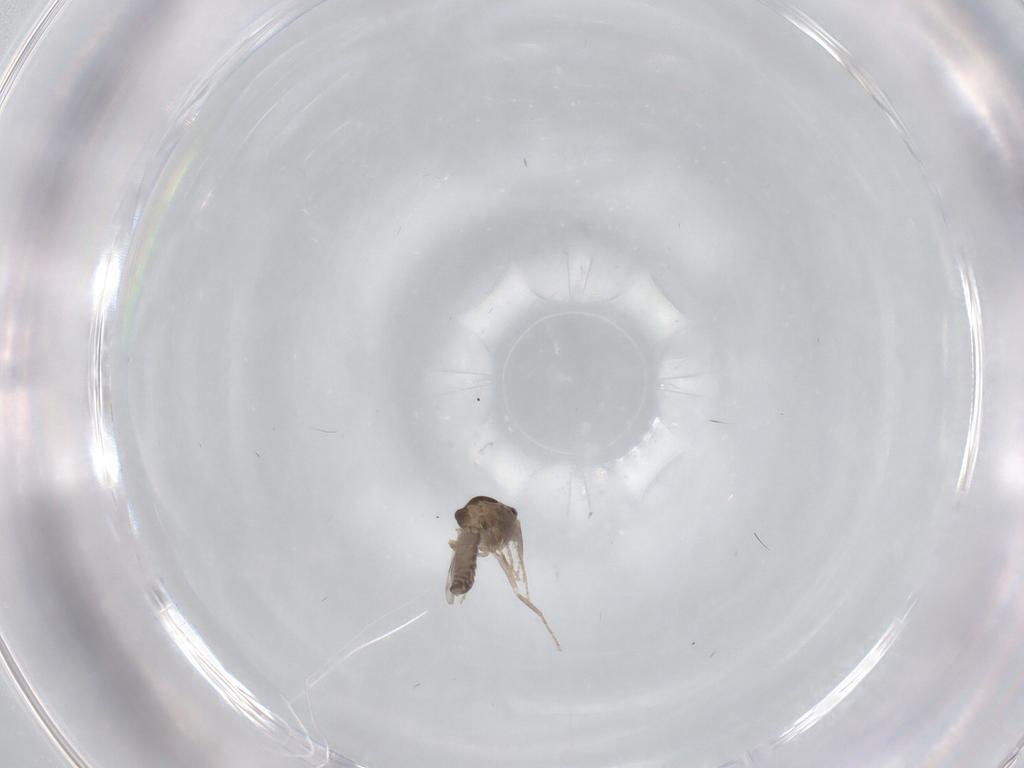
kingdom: Animalia
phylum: Arthropoda
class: Insecta
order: Diptera
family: Ceratopogonidae
